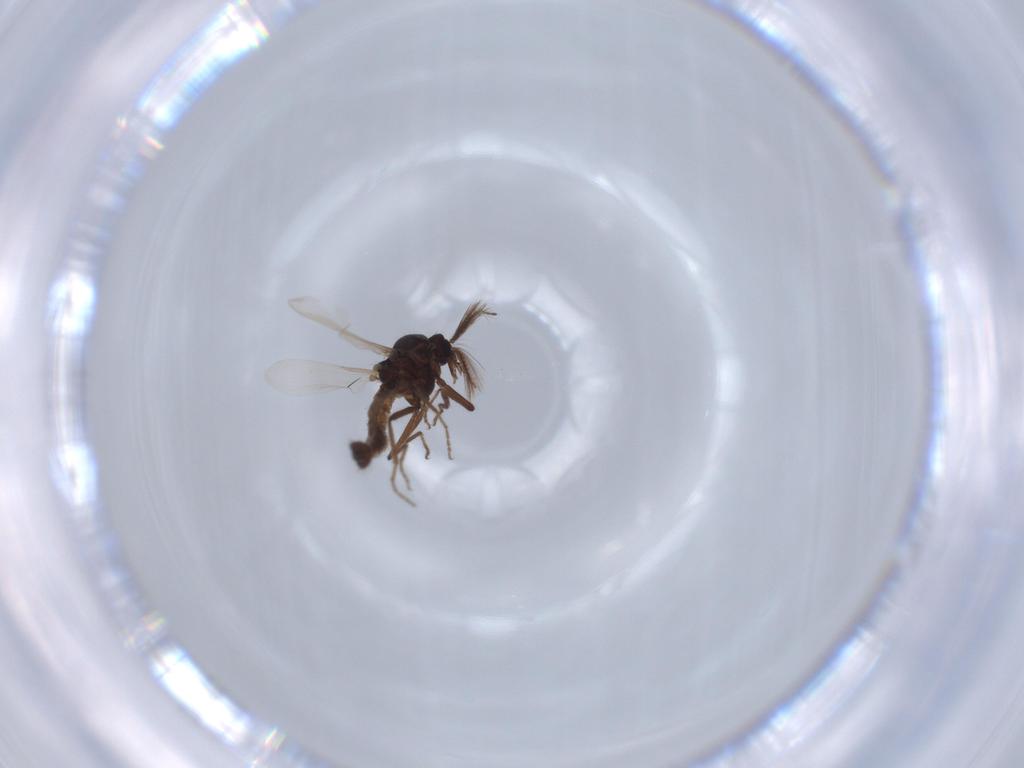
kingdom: Animalia
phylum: Arthropoda
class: Insecta
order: Diptera
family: Ceratopogonidae
